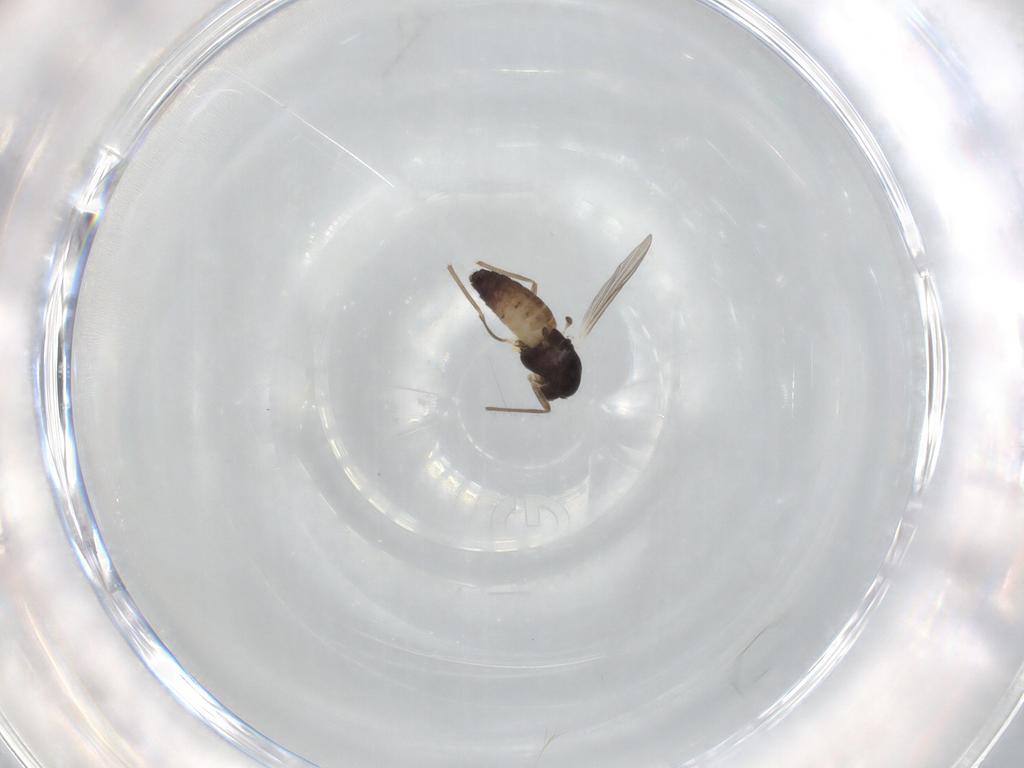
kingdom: Animalia
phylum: Arthropoda
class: Insecta
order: Diptera
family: Chironomidae
